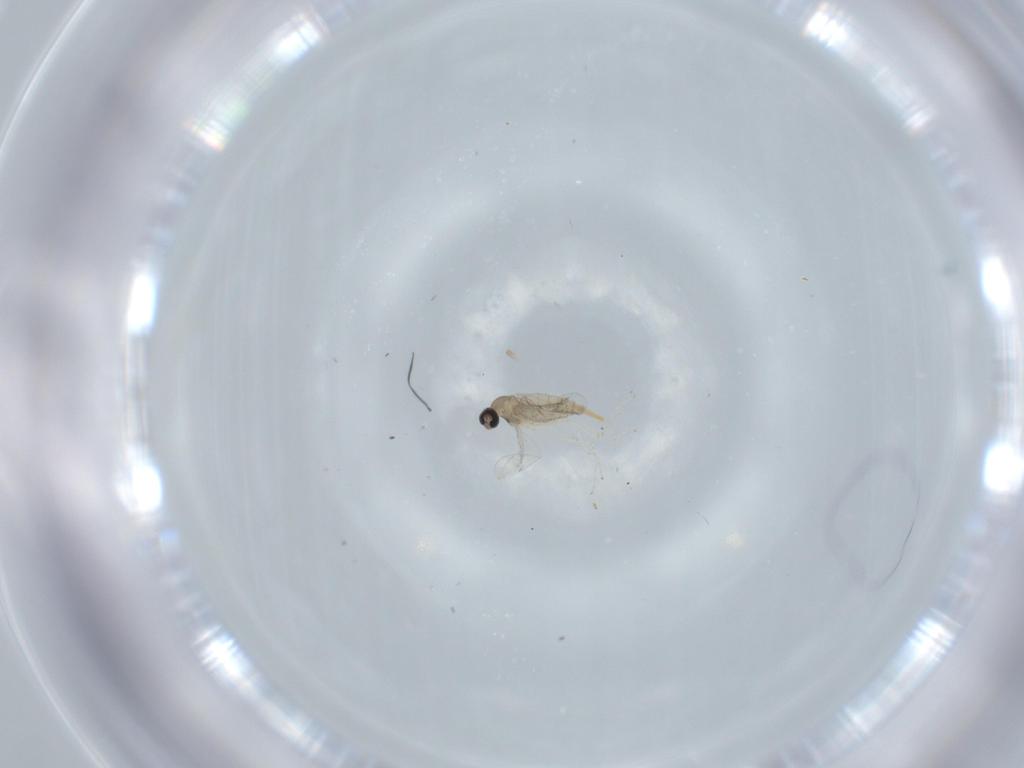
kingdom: Animalia
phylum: Arthropoda
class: Insecta
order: Diptera
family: Cecidomyiidae
